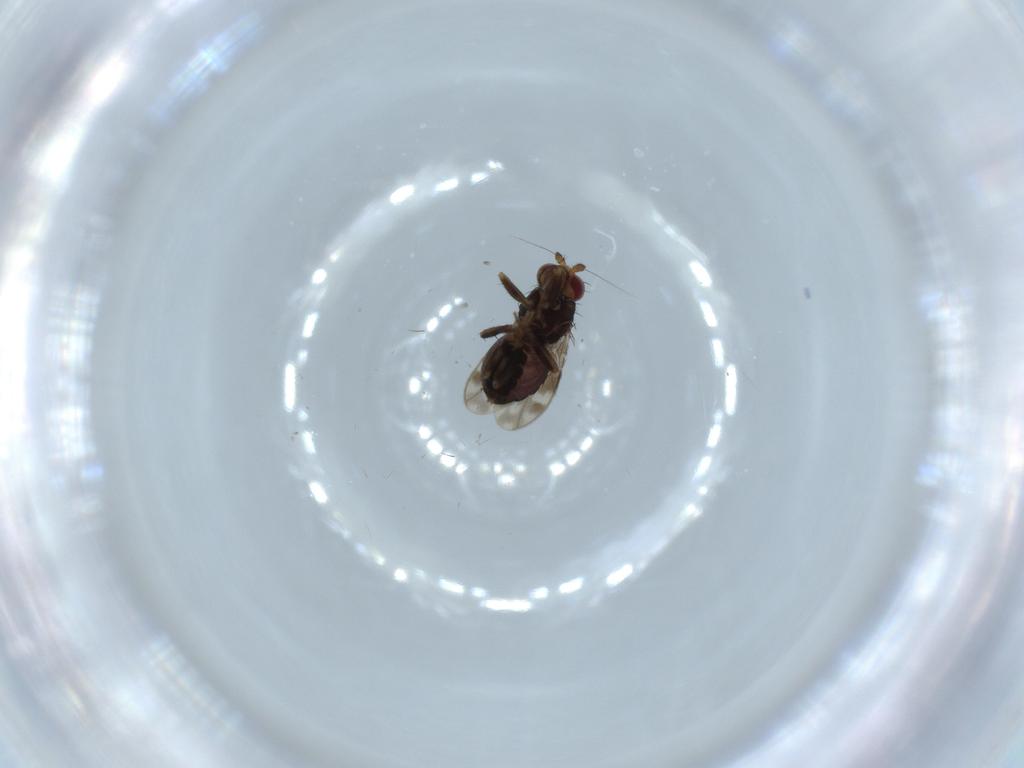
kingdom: Animalia
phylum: Arthropoda
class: Insecta
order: Diptera
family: Sphaeroceridae
